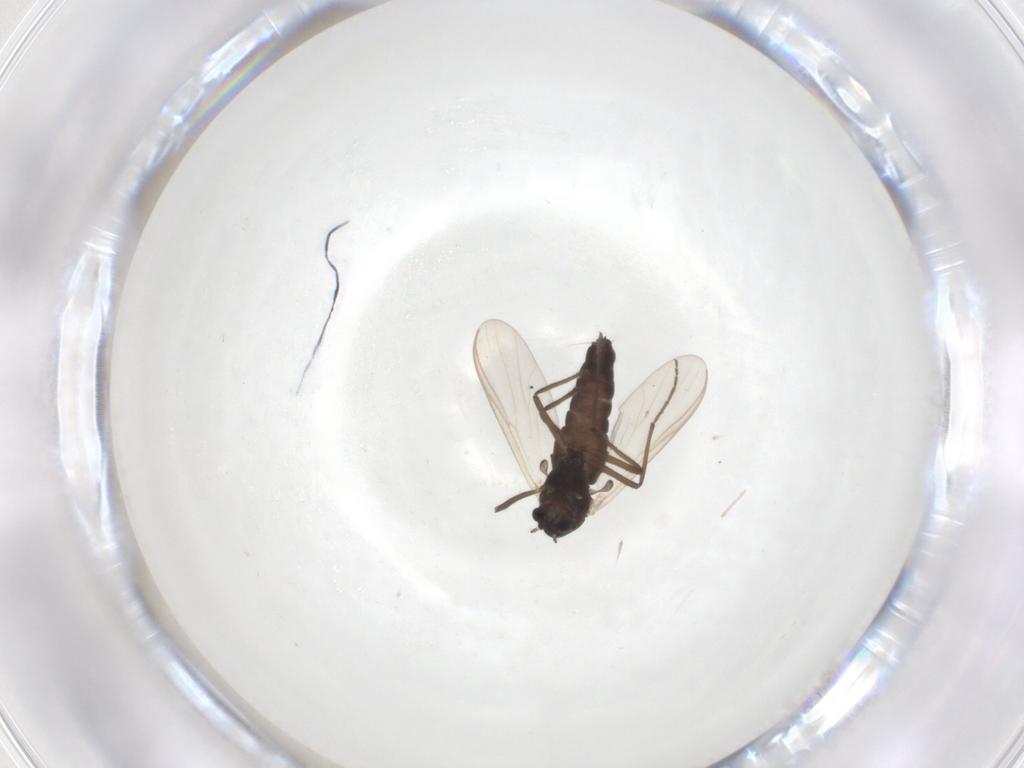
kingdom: Animalia
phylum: Arthropoda
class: Insecta
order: Diptera
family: Chironomidae
